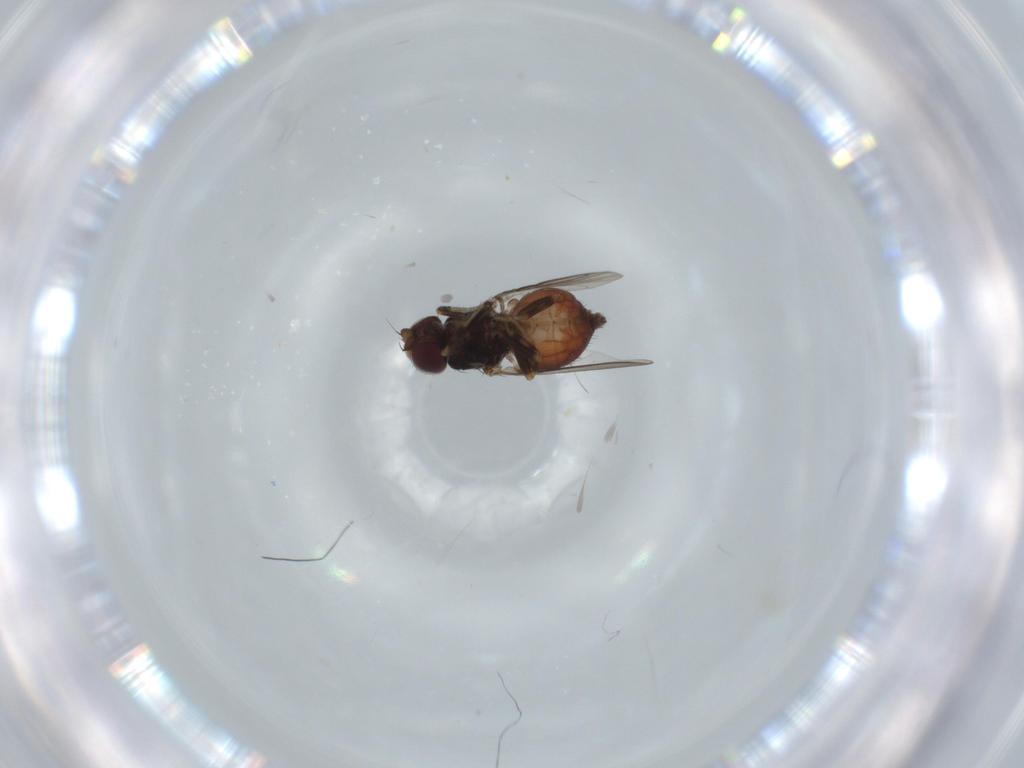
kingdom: Animalia
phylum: Arthropoda
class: Insecta
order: Diptera
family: Chloropidae
